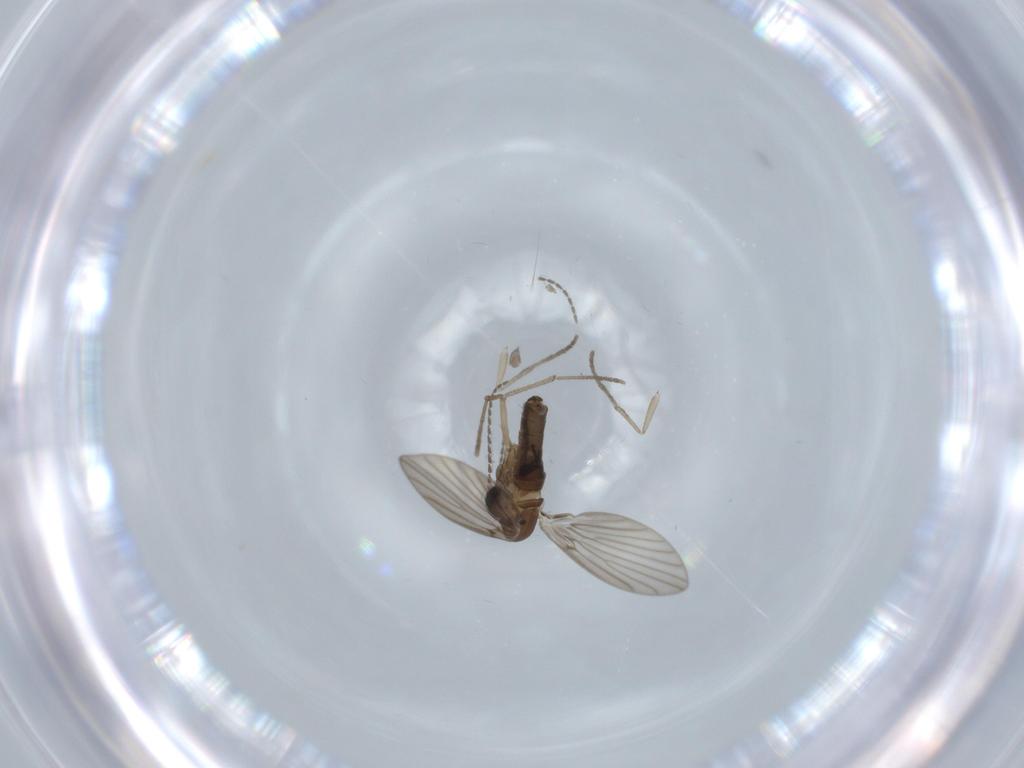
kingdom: Animalia
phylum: Arthropoda
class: Insecta
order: Diptera
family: Psychodidae
